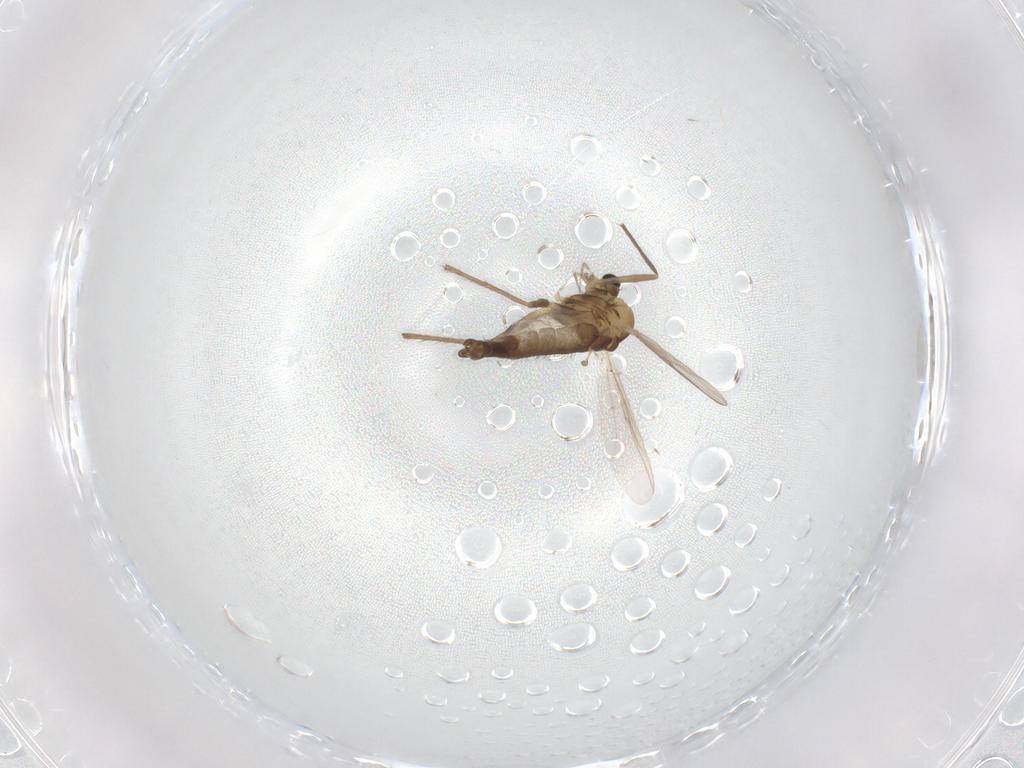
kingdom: Animalia
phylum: Arthropoda
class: Insecta
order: Diptera
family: Chironomidae
